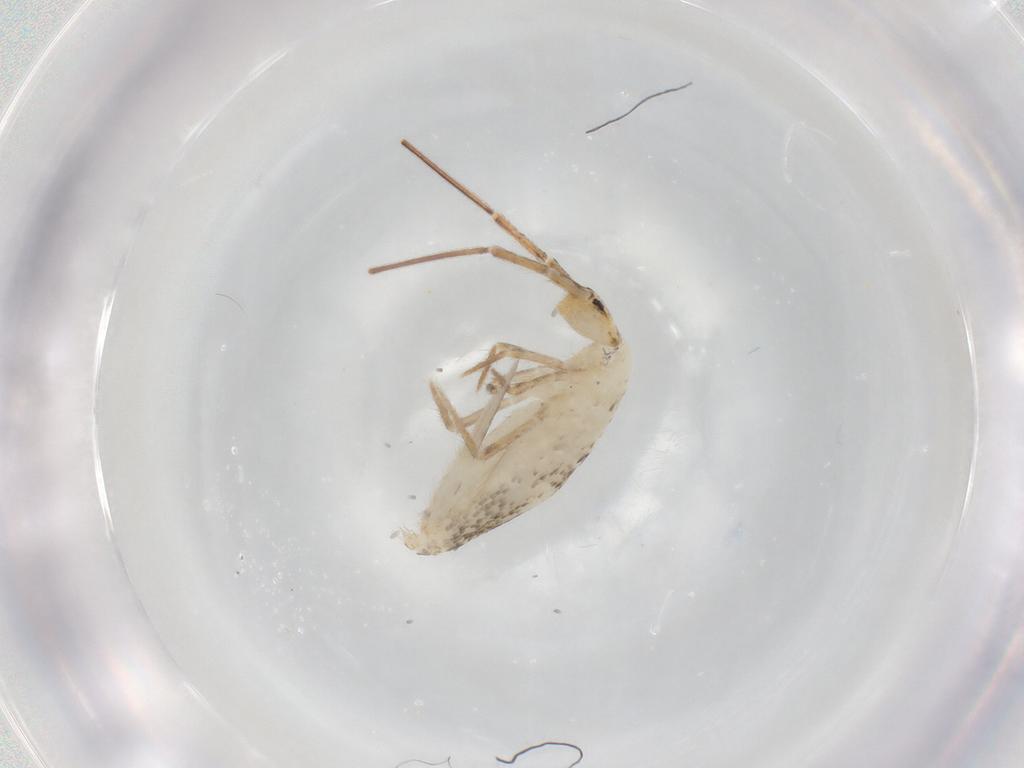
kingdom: Animalia
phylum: Arthropoda
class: Collembola
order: Entomobryomorpha
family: Entomobryidae
